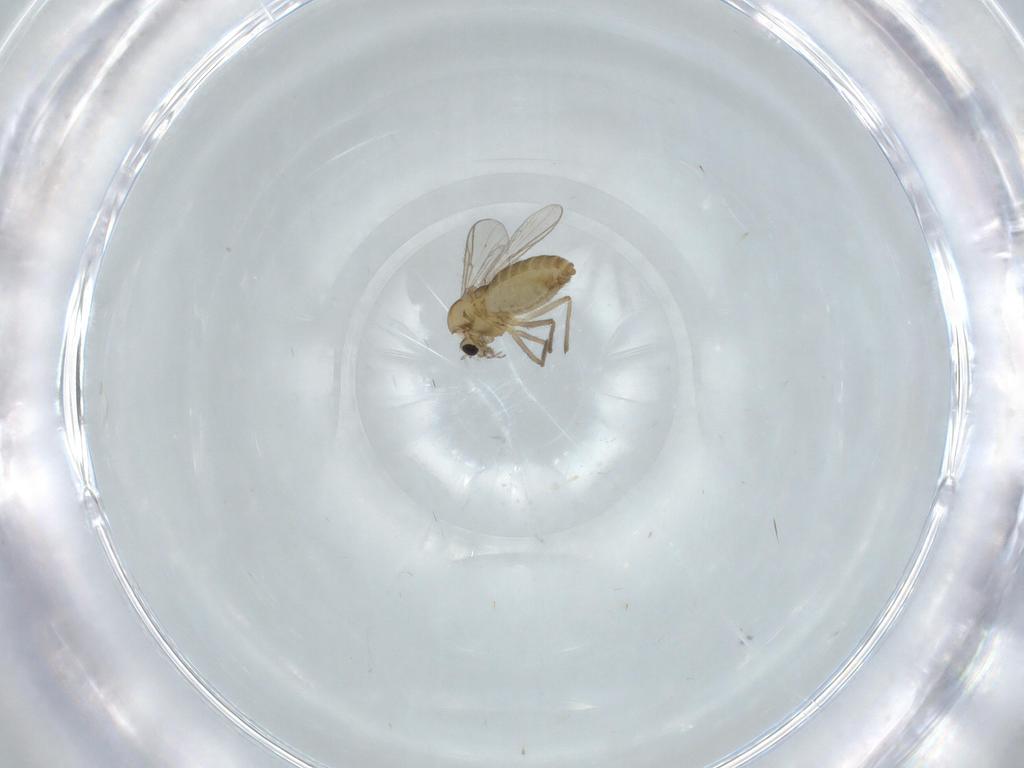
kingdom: Animalia
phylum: Arthropoda
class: Insecta
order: Diptera
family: Chironomidae
